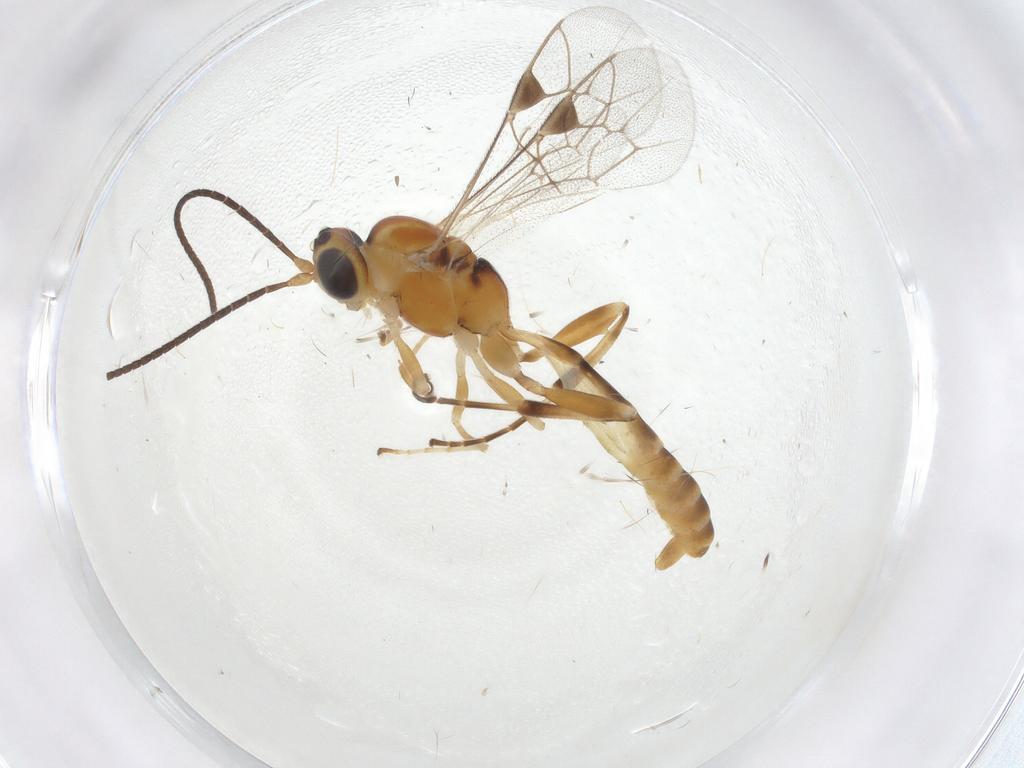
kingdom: Animalia
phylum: Arthropoda
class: Insecta
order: Hymenoptera
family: Ichneumonidae
